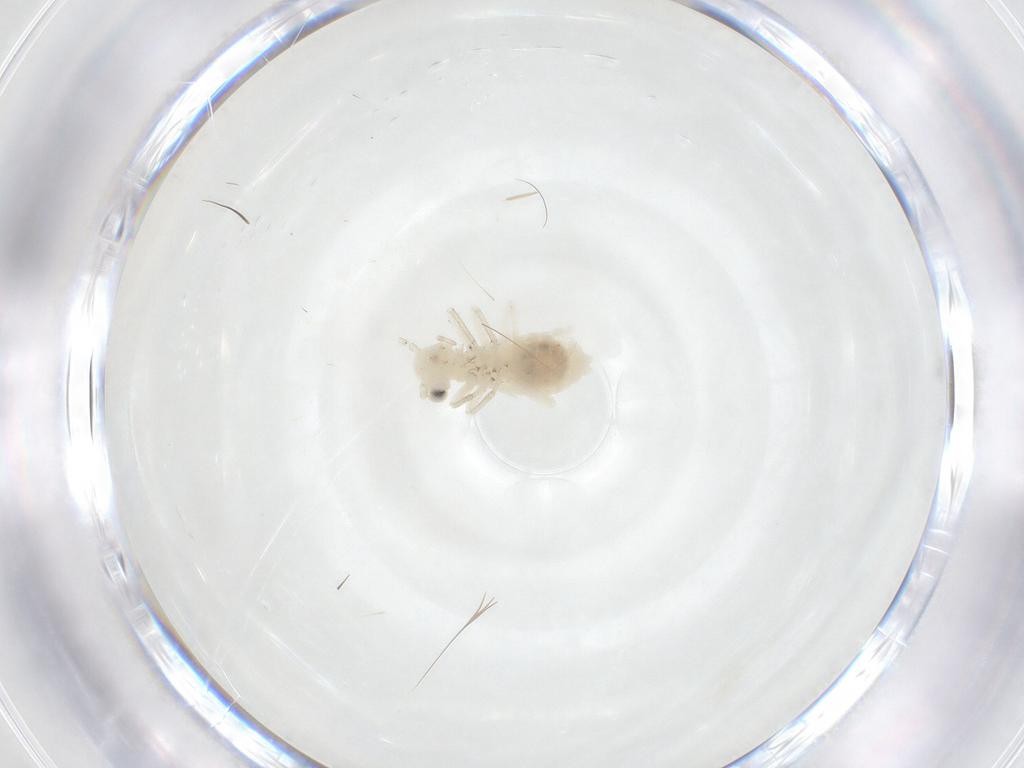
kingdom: Animalia
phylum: Arthropoda
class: Insecta
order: Psocodea
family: Caeciliusidae
